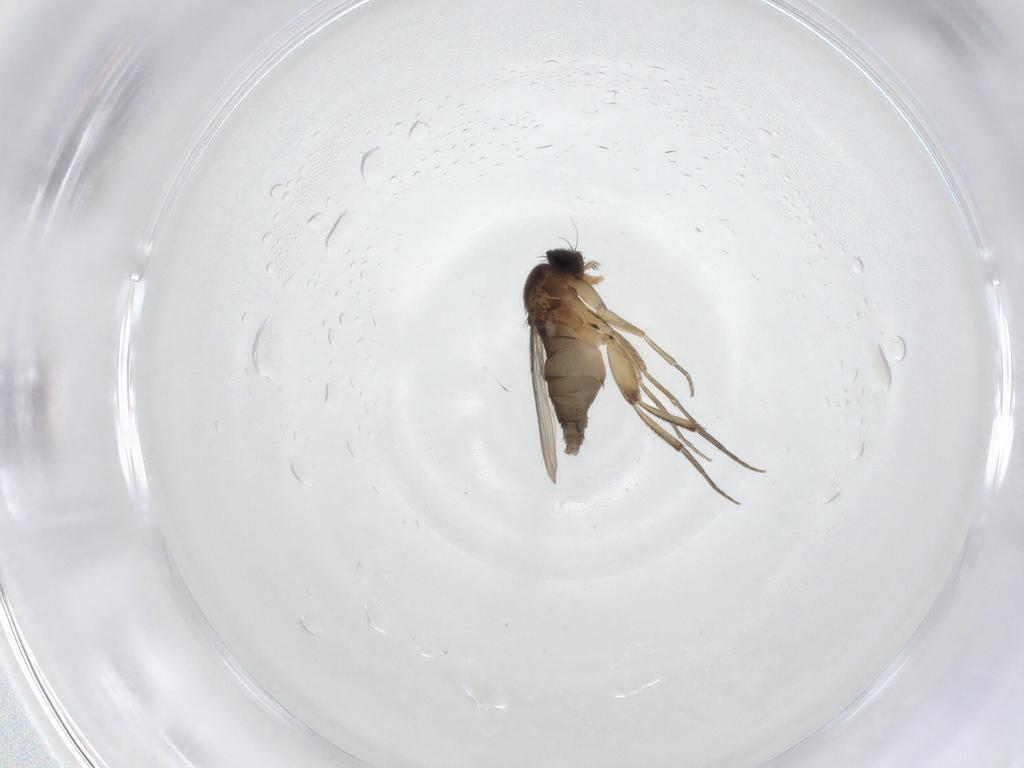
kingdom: Animalia
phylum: Arthropoda
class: Insecta
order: Diptera
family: Phoridae
